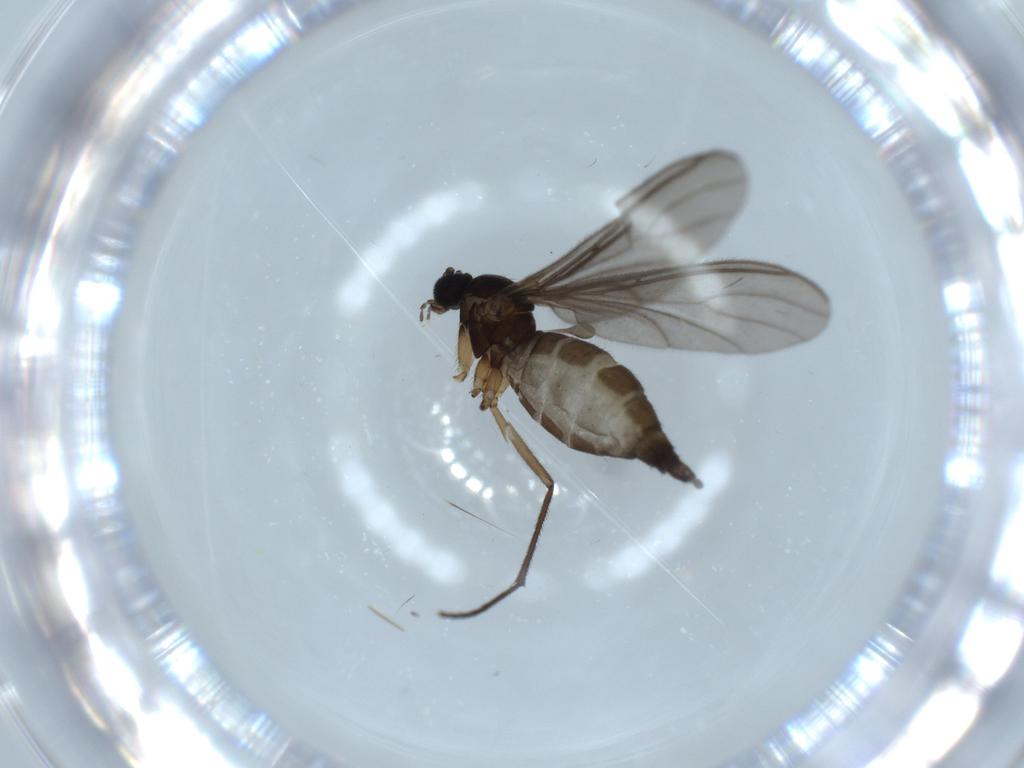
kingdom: Animalia
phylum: Arthropoda
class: Insecta
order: Diptera
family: Sciaridae
